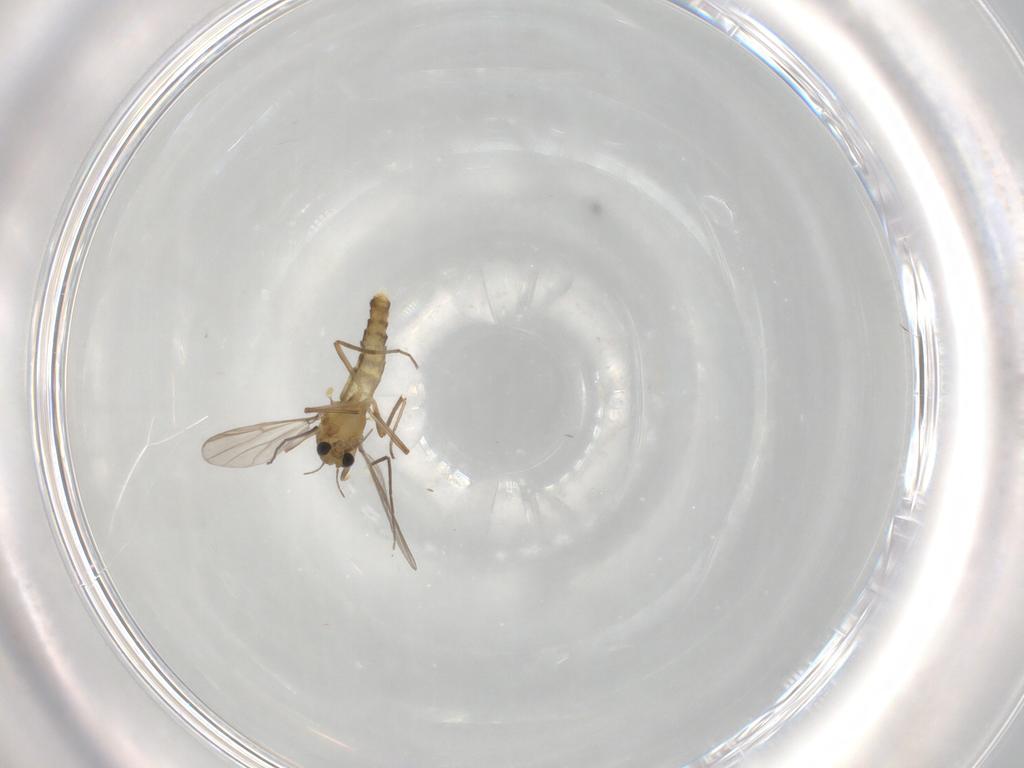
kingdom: Animalia
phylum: Arthropoda
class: Insecta
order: Diptera
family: Chironomidae
